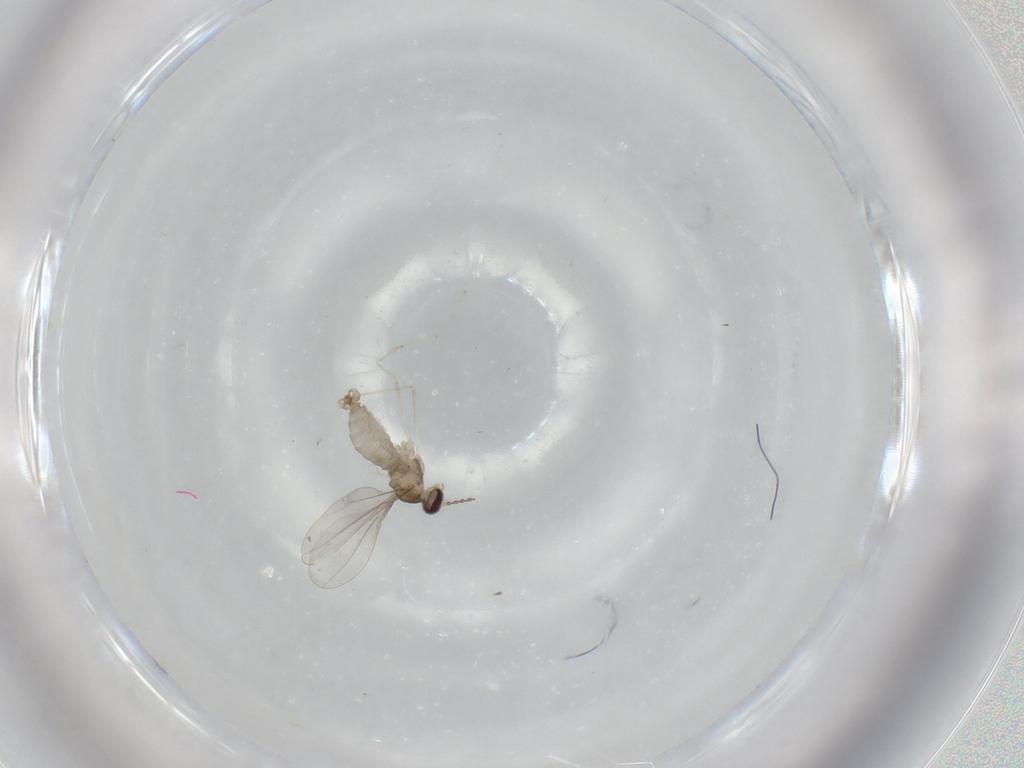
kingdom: Animalia
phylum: Arthropoda
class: Insecta
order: Diptera
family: Cecidomyiidae
